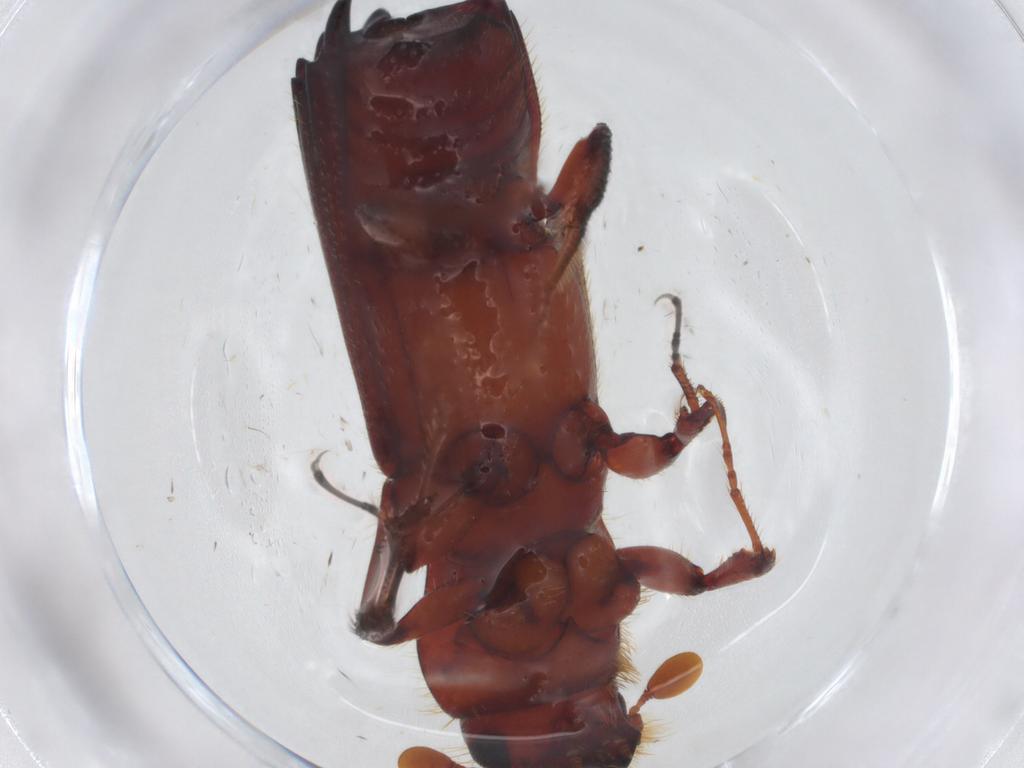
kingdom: Animalia
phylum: Arthropoda
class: Insecta
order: Coleoptera
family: Curculionidae
